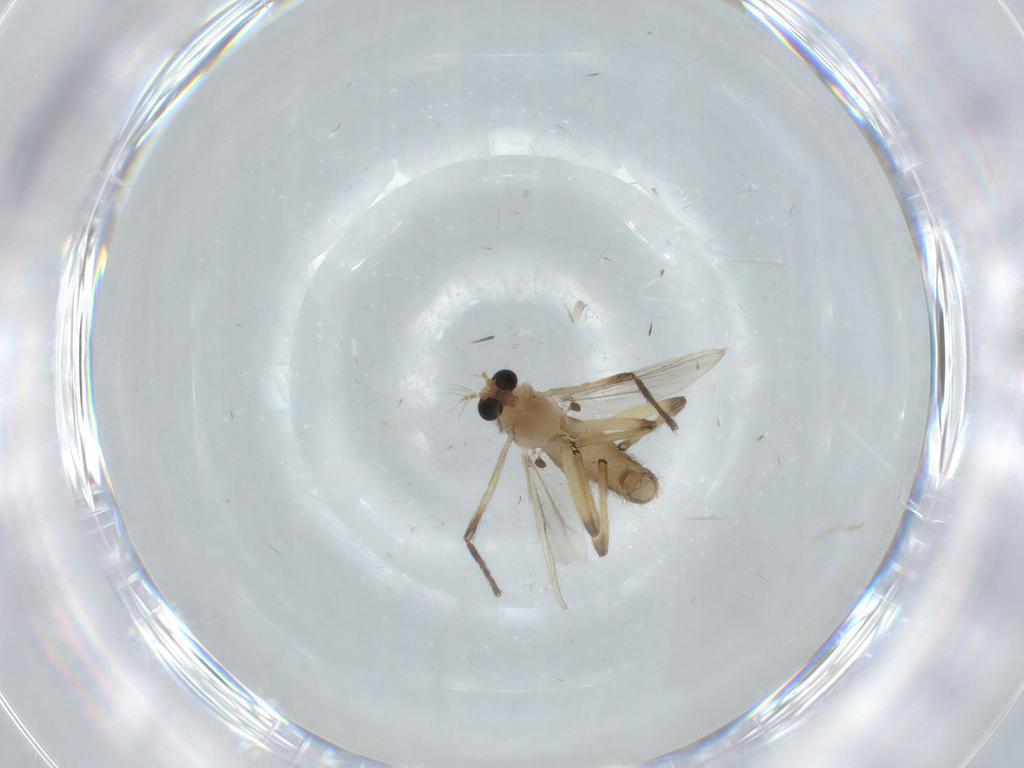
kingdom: Animalia
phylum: Arthropoda
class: Insecta
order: Diptera
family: Chironomidae
